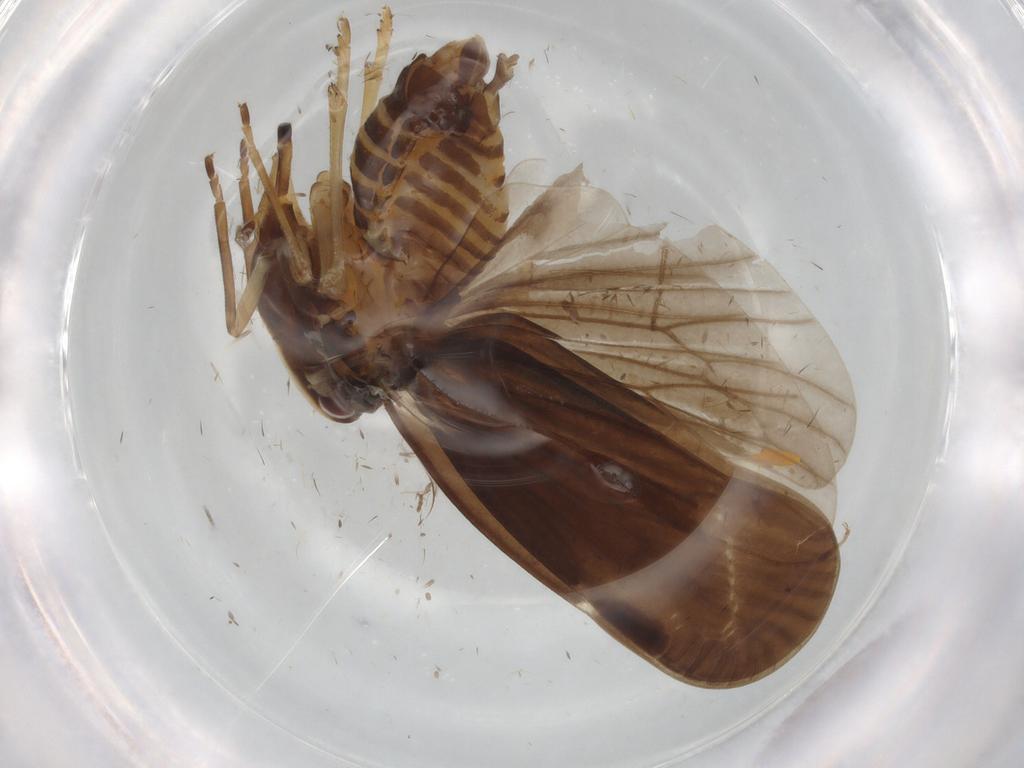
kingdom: Animalia
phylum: Arthropoda
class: Insecta
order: Hemiptera
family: Derbidae
